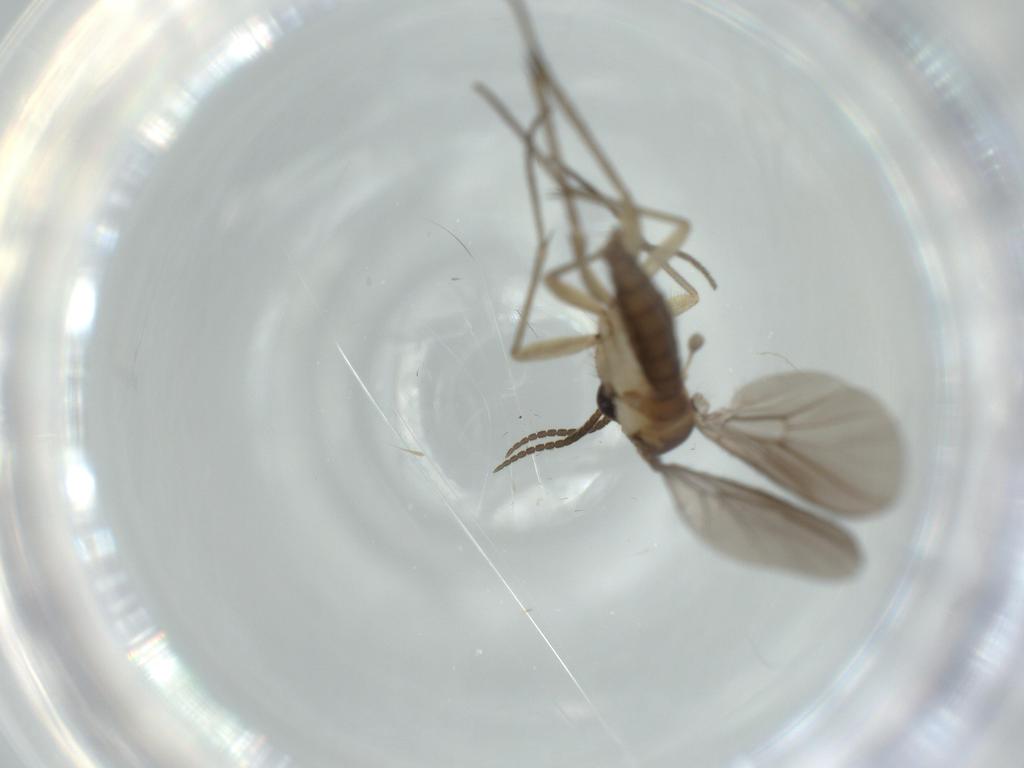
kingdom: Animalia
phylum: Arthropoda
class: Insecta
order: Diptera
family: Diadocidiidae
